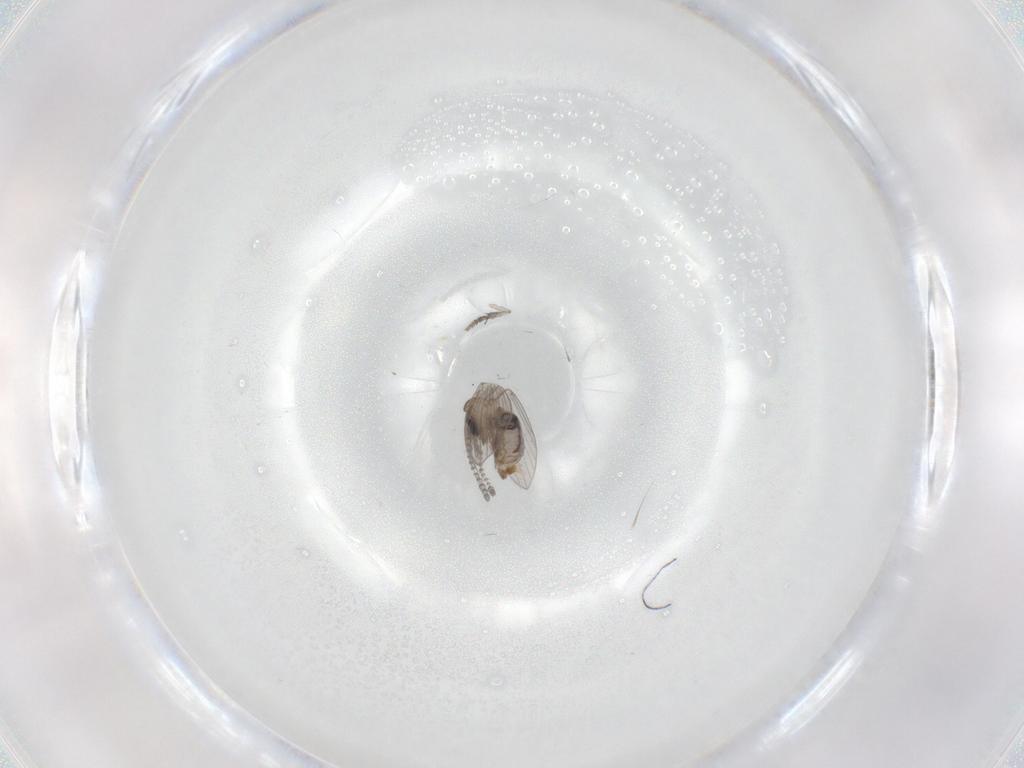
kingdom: Animalia
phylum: Arthropoda
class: Insecta
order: Diptera
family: Psychodidae
